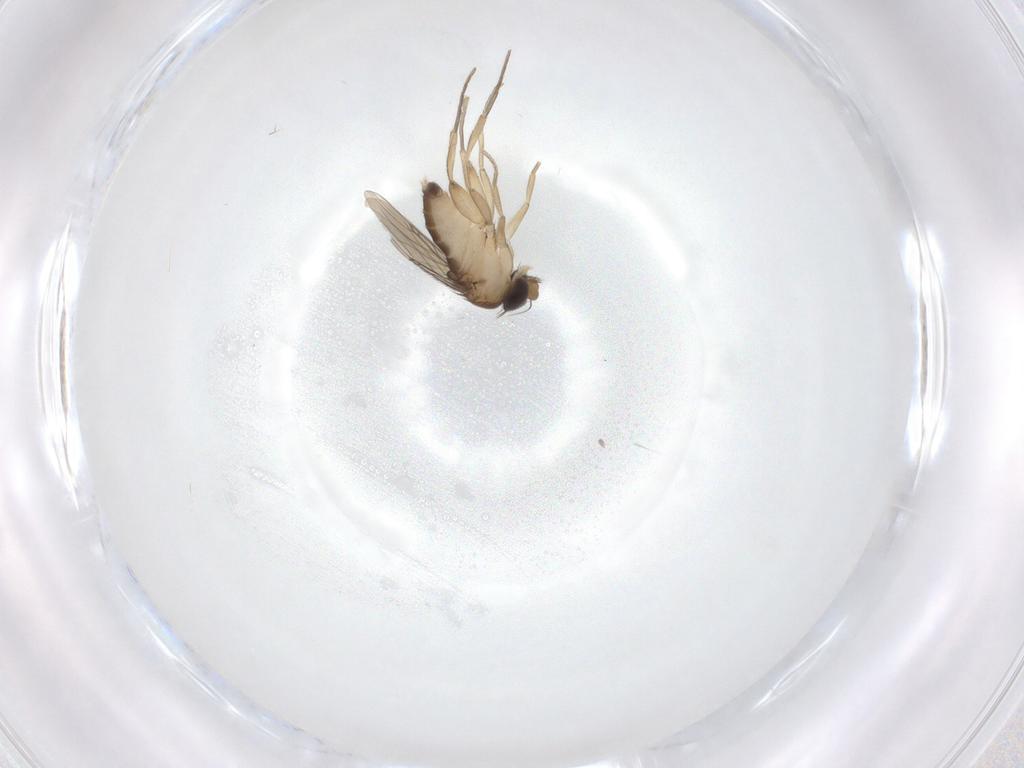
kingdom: Animalia
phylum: Arthropoda
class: Insecta
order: Diptera
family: Phoridae
